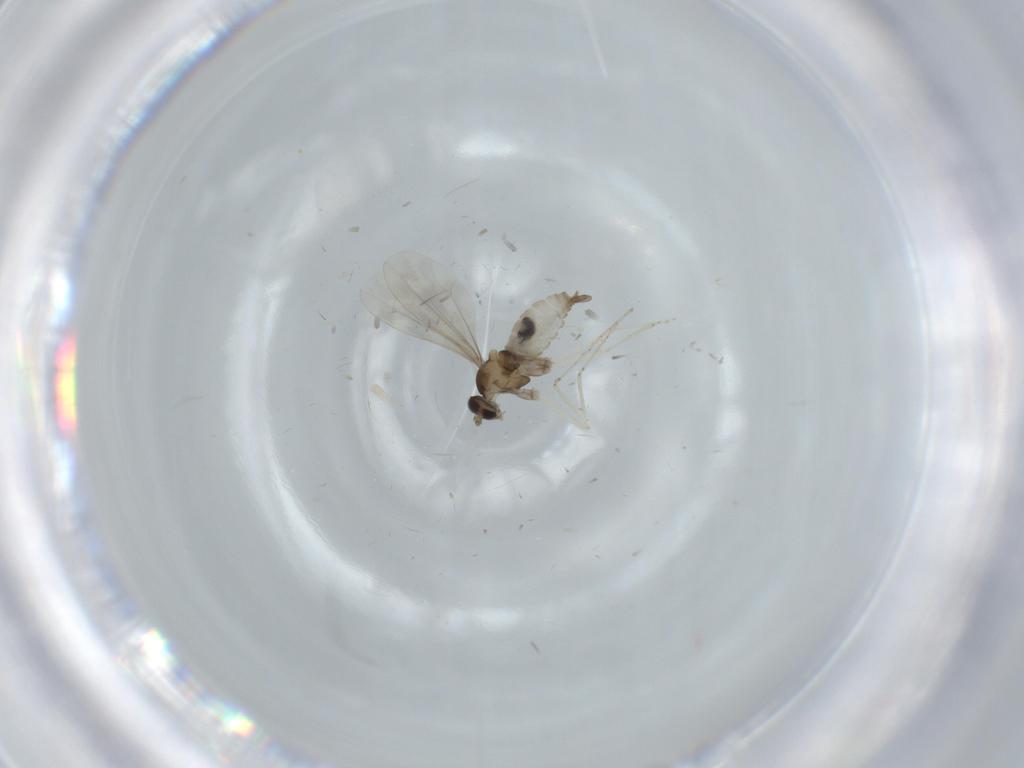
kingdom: Animalia
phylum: Arthropoda
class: Insecta
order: Diptera
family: Cecidomyiidae
